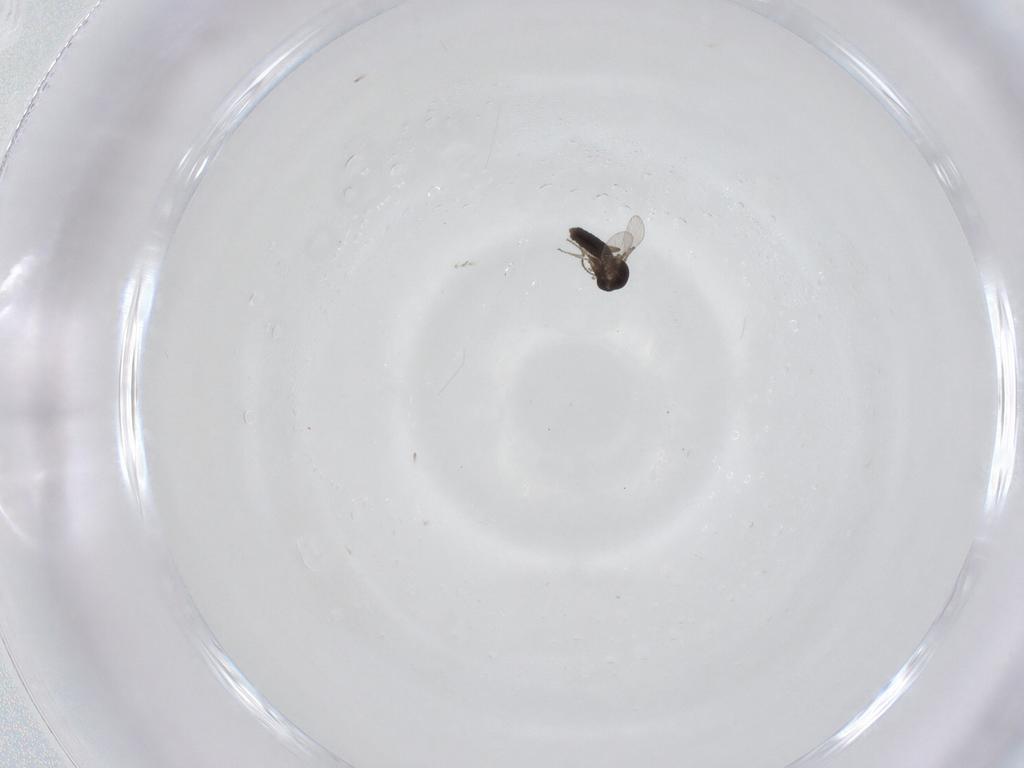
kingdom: Animalia
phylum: Arthropoda
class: Insecta
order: Diptera
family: Ceratopogonidae
